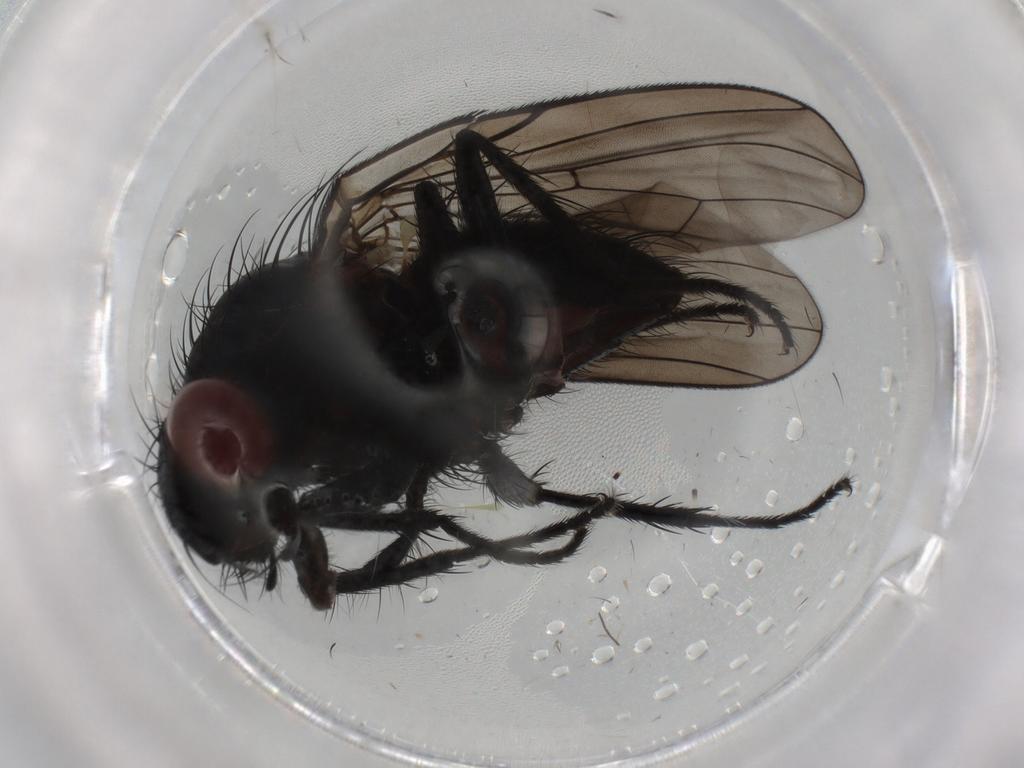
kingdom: Animalia
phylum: Arthropoda
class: Insecta
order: Diptera
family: Anthomyiidae
